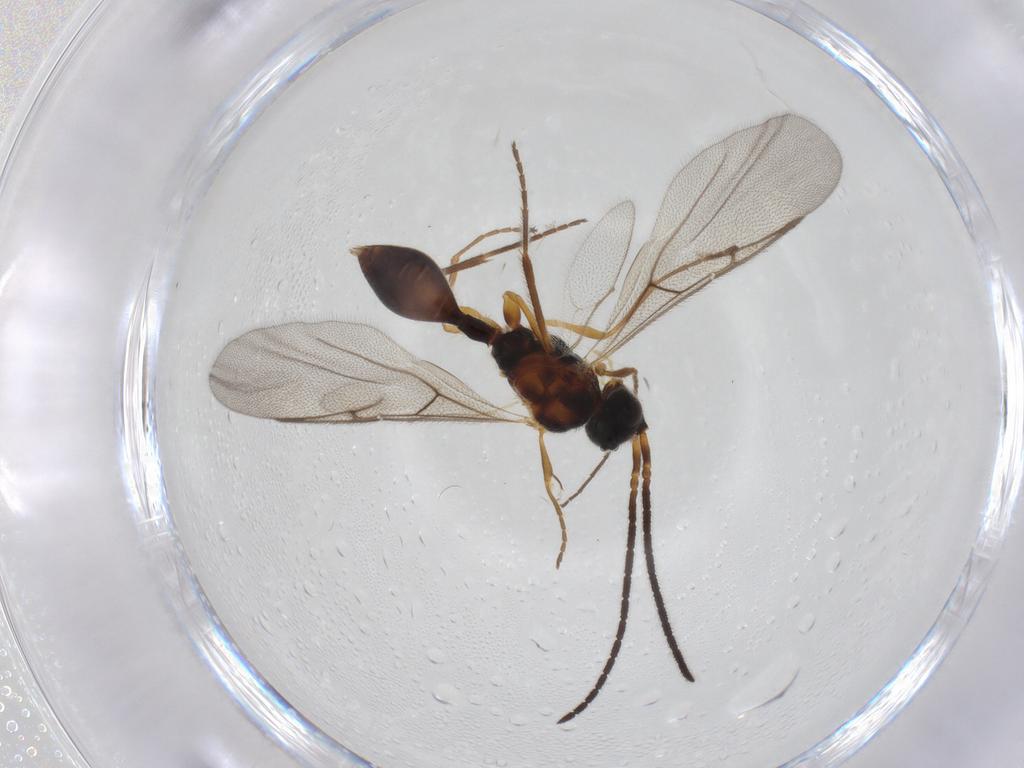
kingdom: Animalia
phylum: Arthropoda
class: Insecta
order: Hymenoptera
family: Diapriidae
